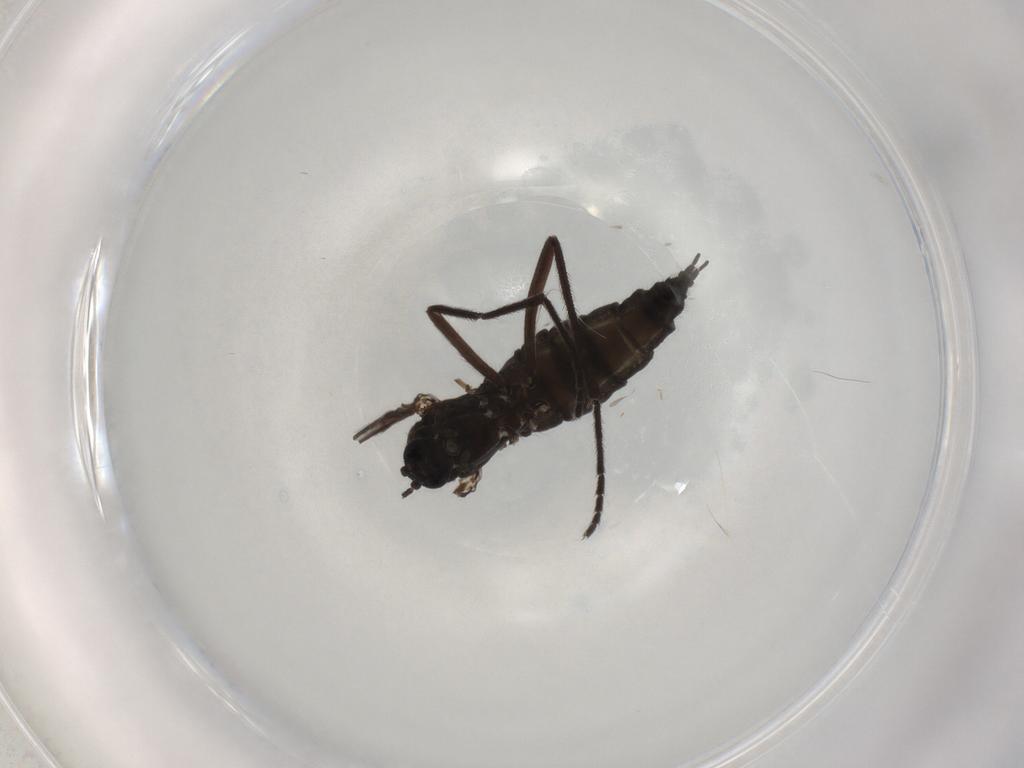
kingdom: Animalia
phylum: Arthropoda
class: Insecta
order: Diptera
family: Sciaridae
